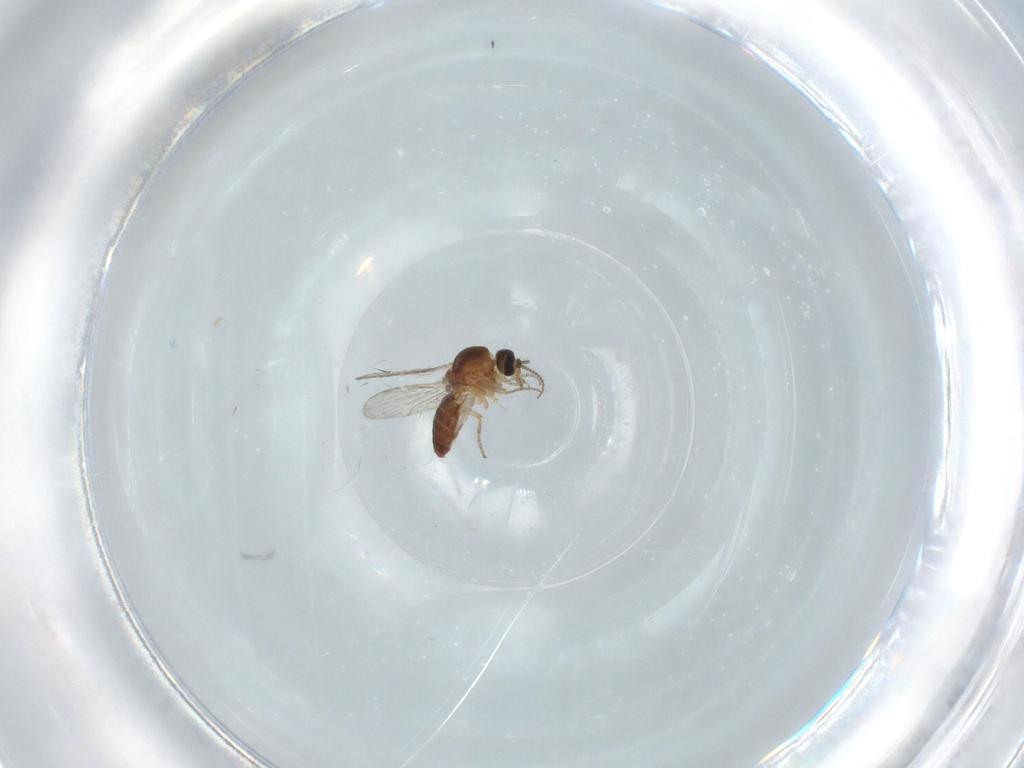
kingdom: Animalia
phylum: Arthropoda
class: Insecta
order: Diptera
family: Ceratopogonidae
